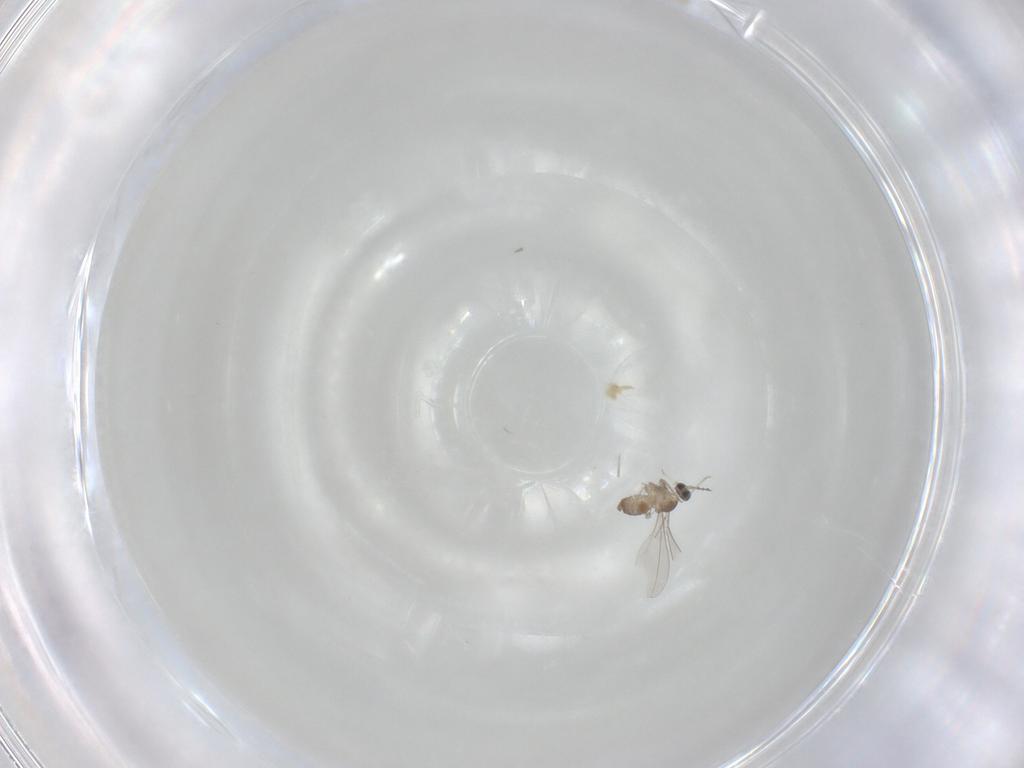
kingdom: Animalia
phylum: Arthropoda
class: Insecta
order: Diptera
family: Cecidomyiidae
